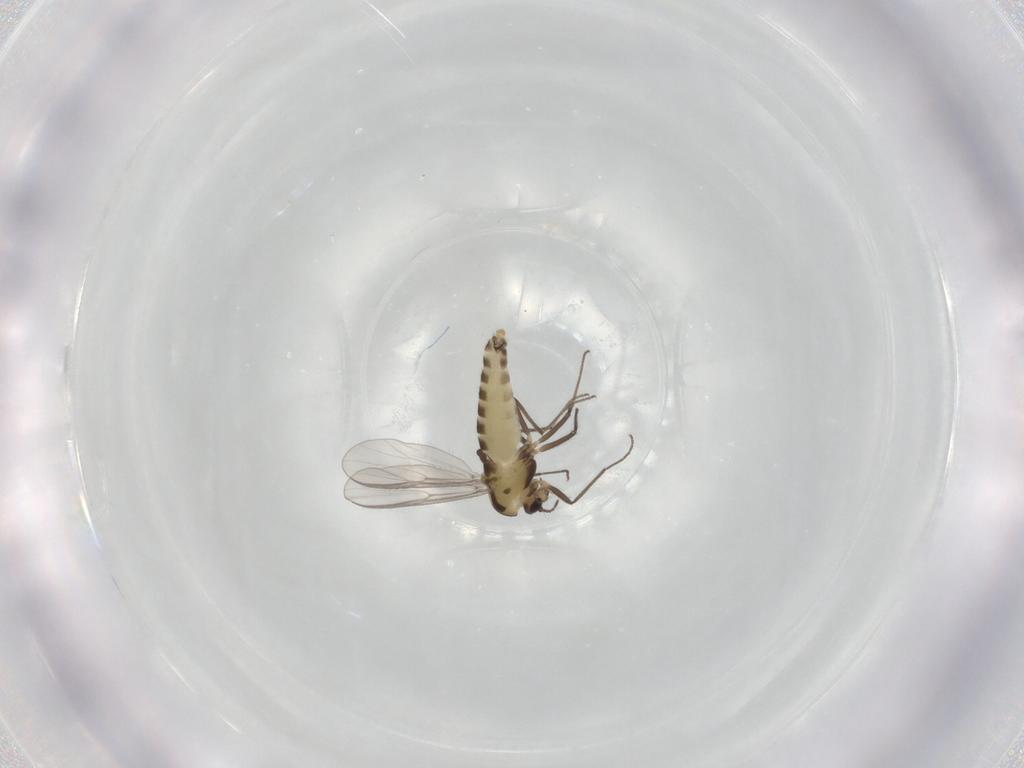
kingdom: Animalia
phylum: Arthropoda
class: Insecta
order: Diptera
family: Chironomidae
